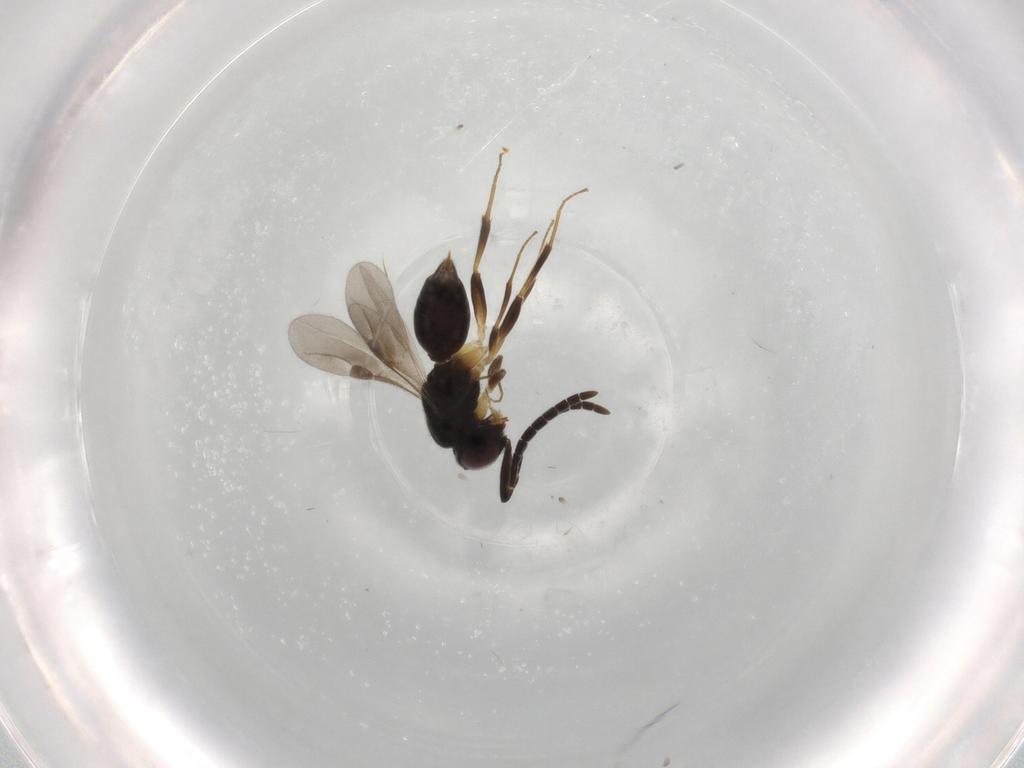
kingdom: Animalia
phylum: Arthropoda
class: Insecta
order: Hymenoptera
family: Megaspilidae
